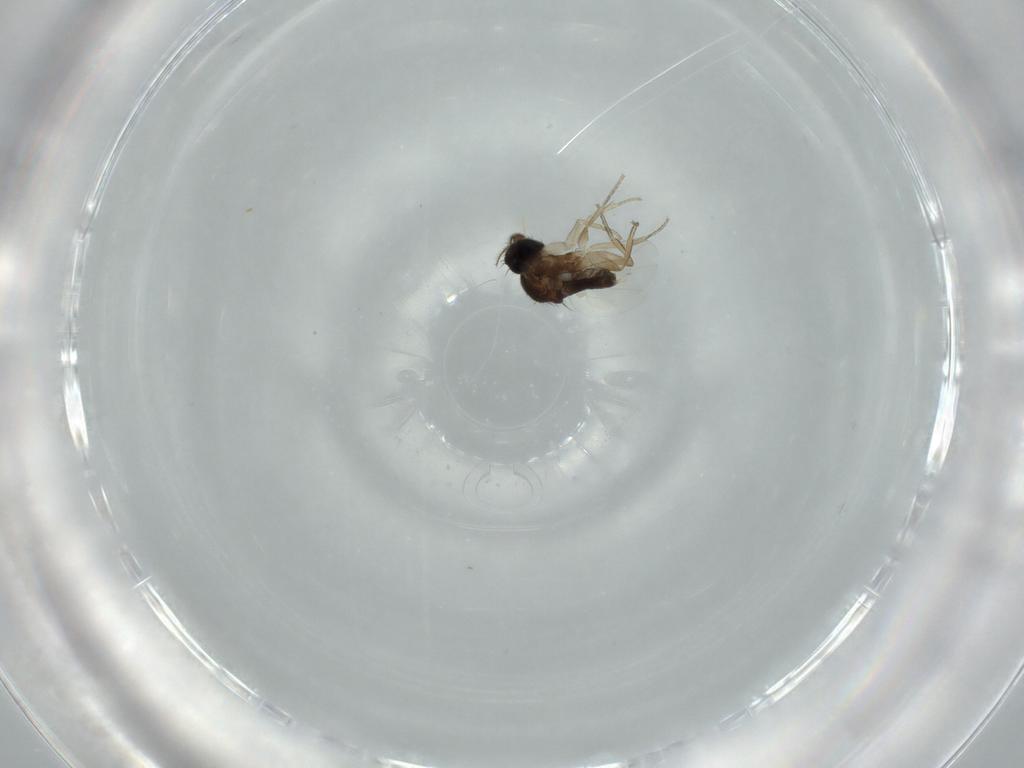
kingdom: Animalia
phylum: Arthropoda
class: Insecta
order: Diptera
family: Phoridae
